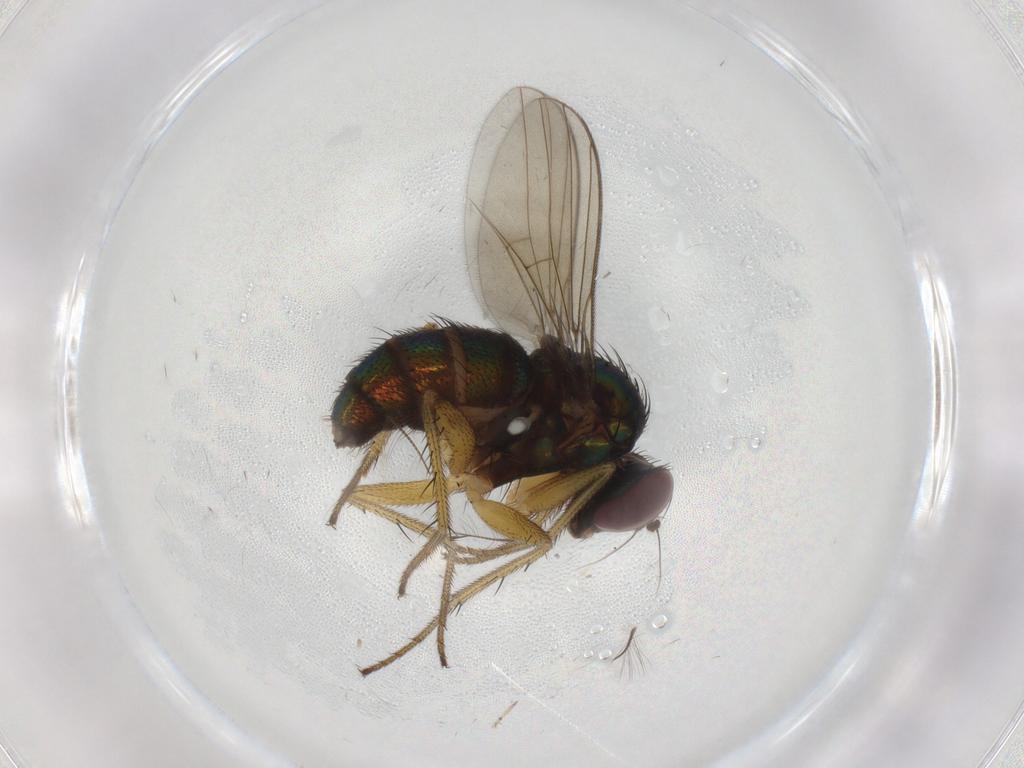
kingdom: Animalia
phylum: Arthropoda
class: Insecta
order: Diptera
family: Dolichopodidae
